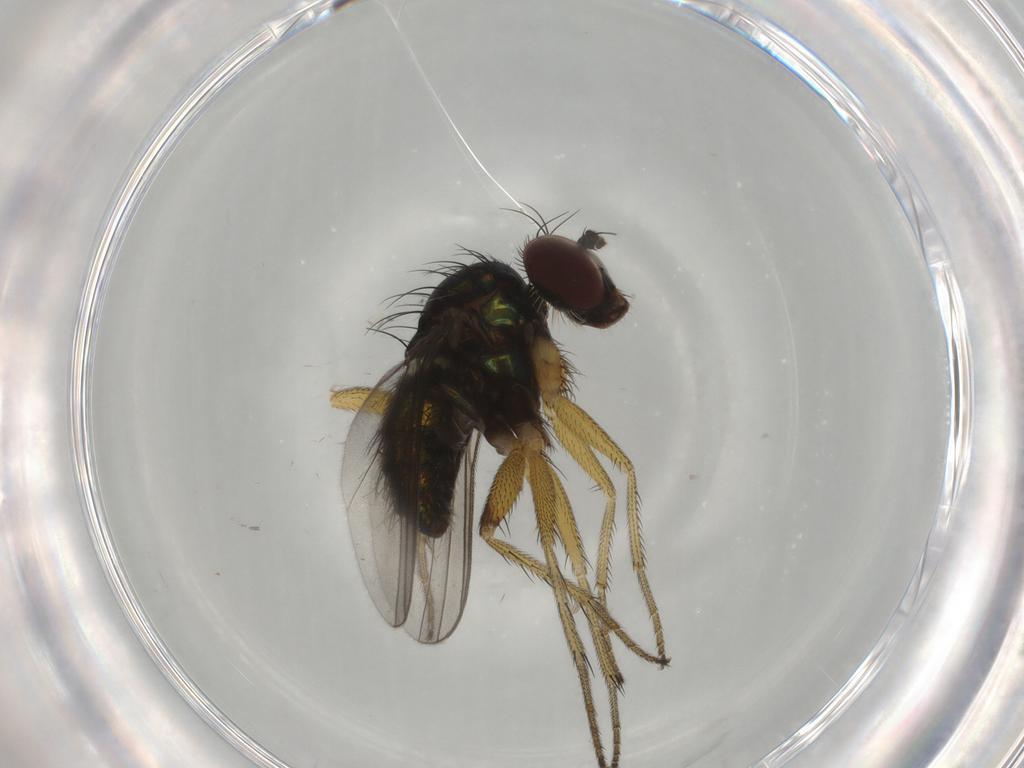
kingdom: Animalia
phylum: Arthropoda
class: Insecta
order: Diptera
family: Dolichopodidae
